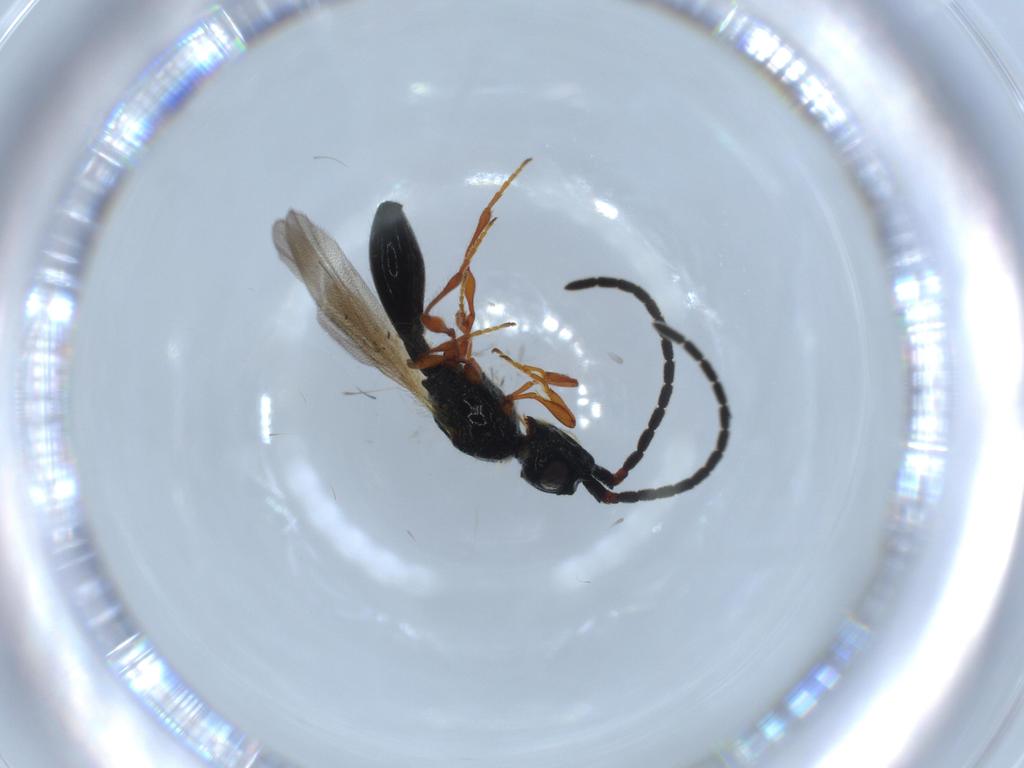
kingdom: Animalia
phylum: Arthropoda
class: Insecta
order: Hymenoptera
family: Diapriidae
